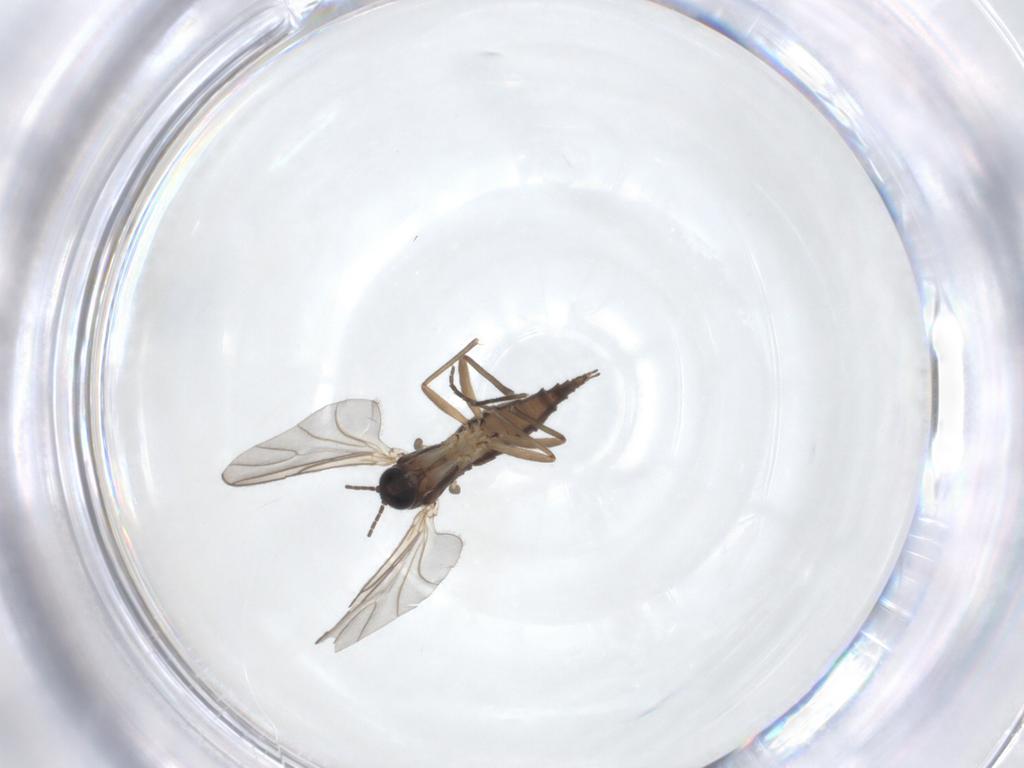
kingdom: Animalia
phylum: Arthropoda
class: Insecta
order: Diptera
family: Sciaridae
